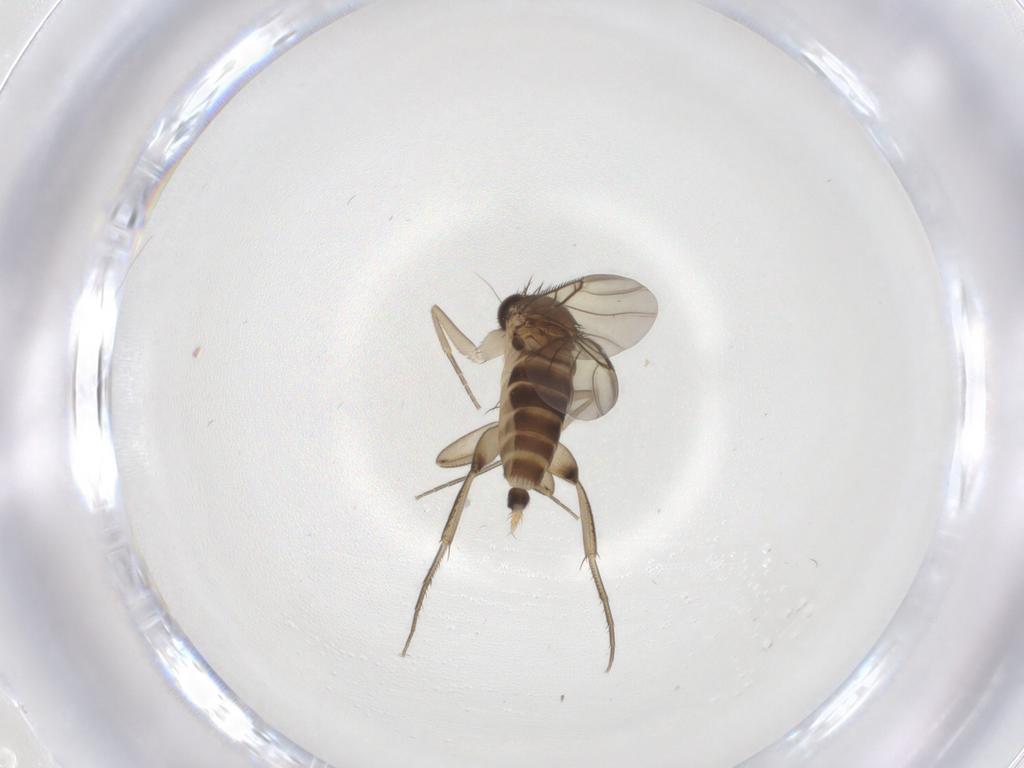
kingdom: Animalia
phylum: Arthropoda
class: Insecta
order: Diptera
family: Phoridae
